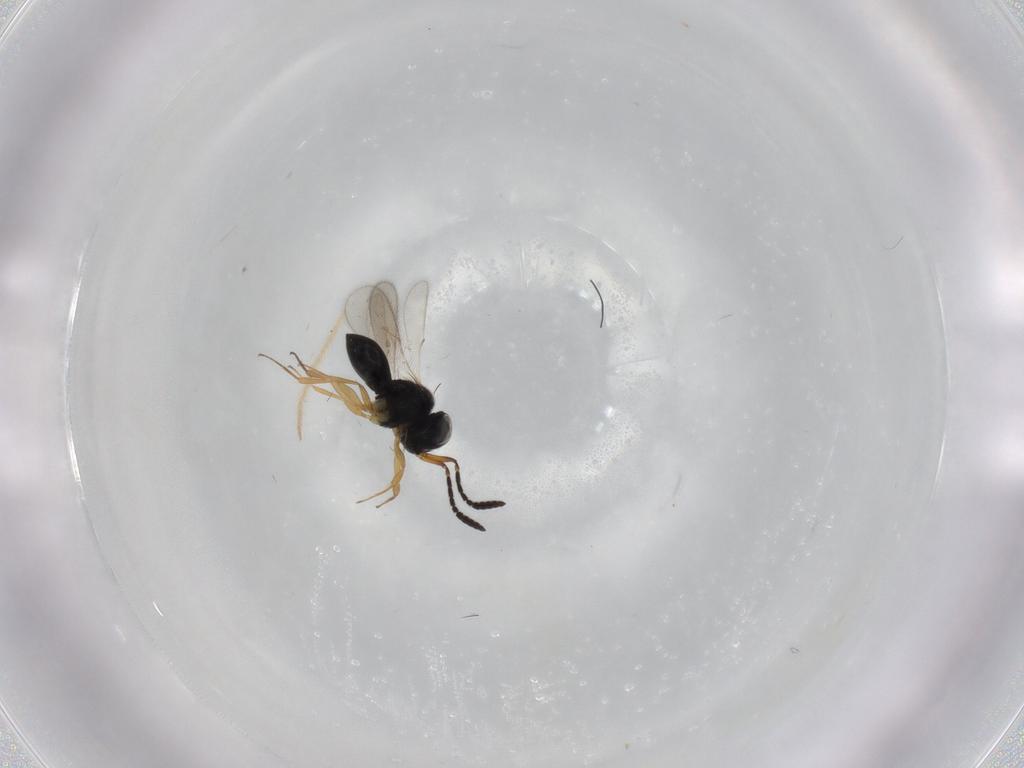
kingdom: Animalia
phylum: Arthropoda
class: Insecta
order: Hymenoptera
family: Scelionidae
